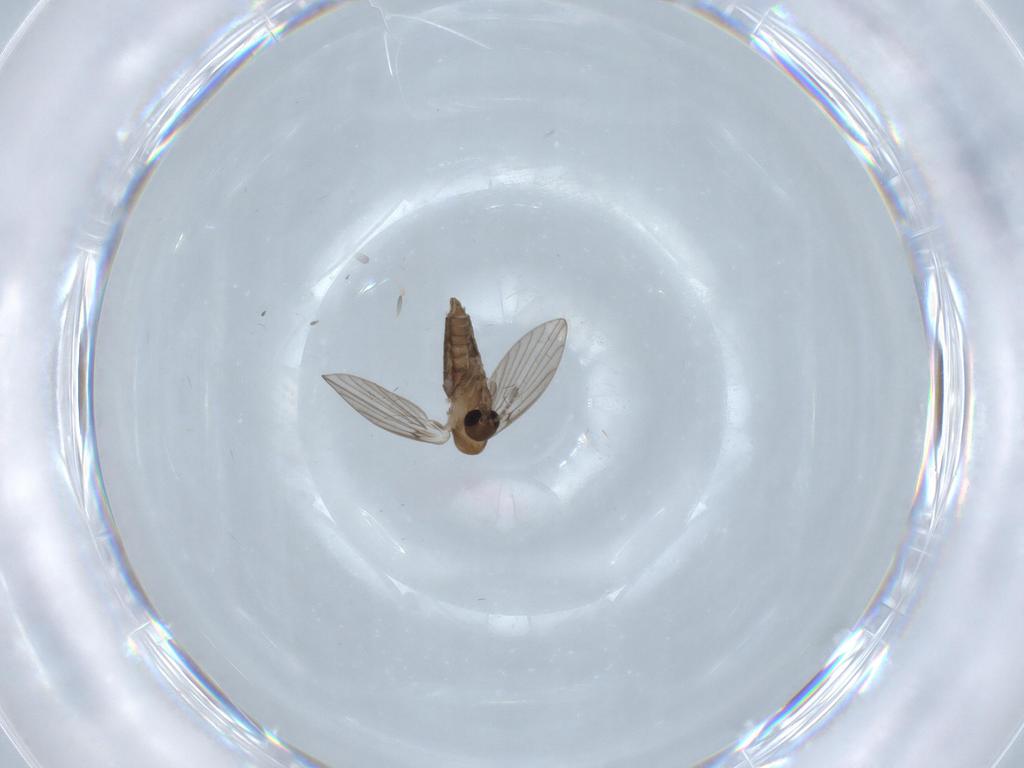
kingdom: Animalia
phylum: Arthropoda
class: Insecta
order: Diptera
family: Psychodidae
